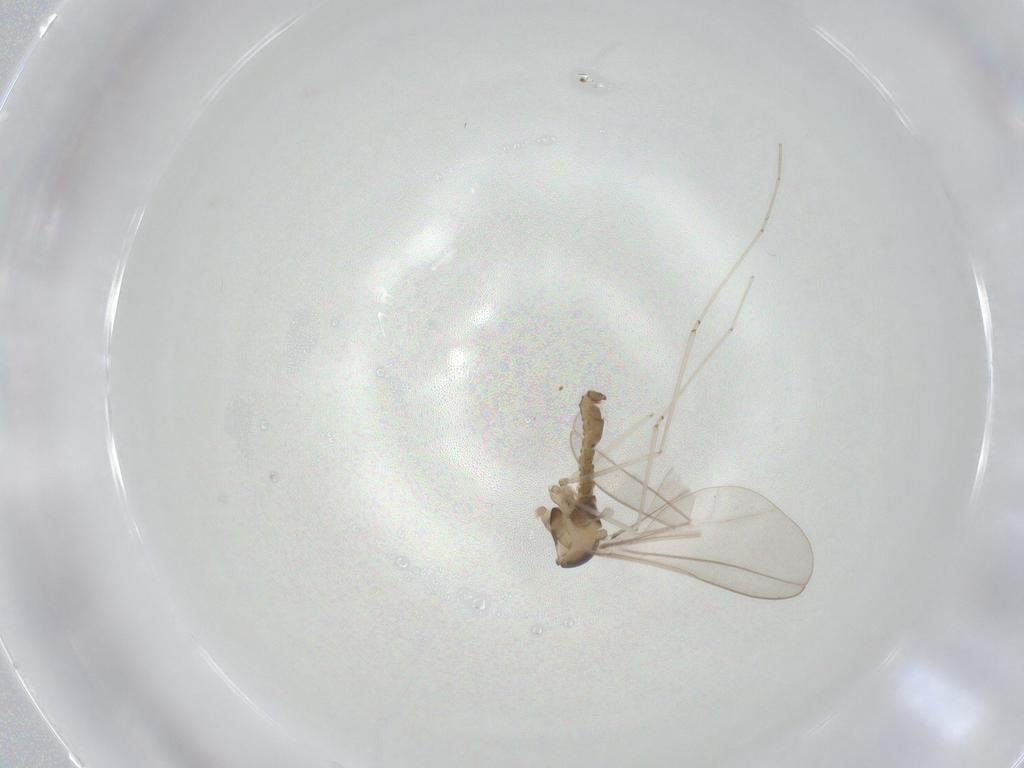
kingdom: Animalia
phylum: Arthropoda
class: Insecta
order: Diptera
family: Cecidomyiidae
